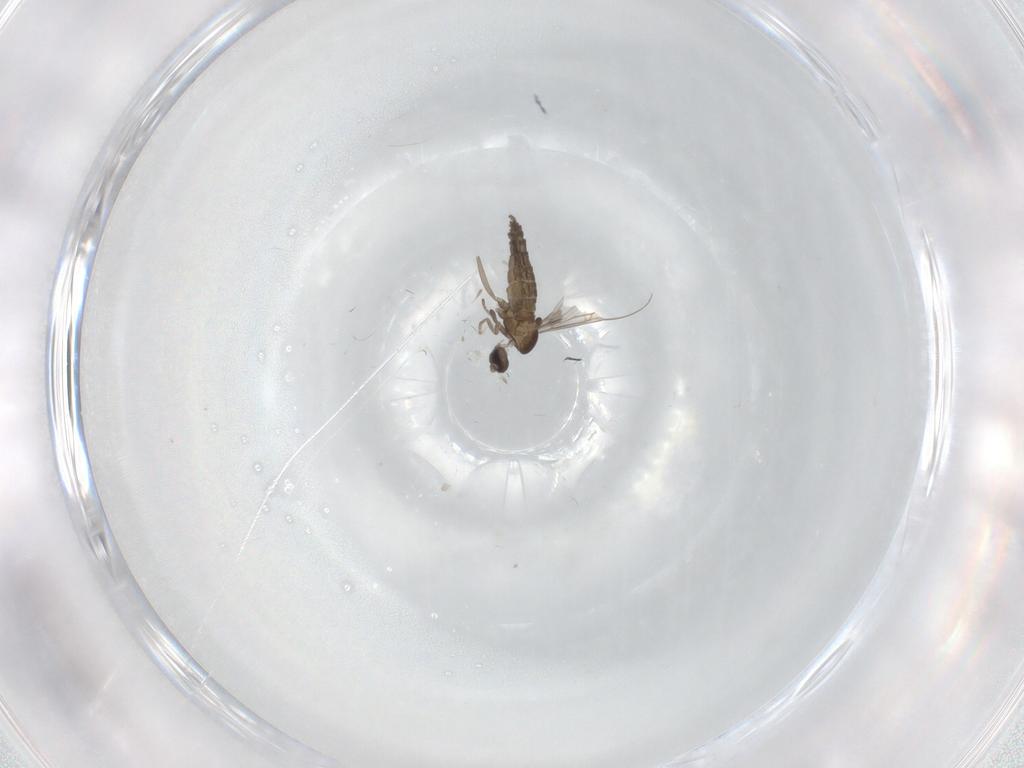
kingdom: Animalia
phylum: Arthropoda
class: Insecta
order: Diptera
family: Cecidomyiidae
